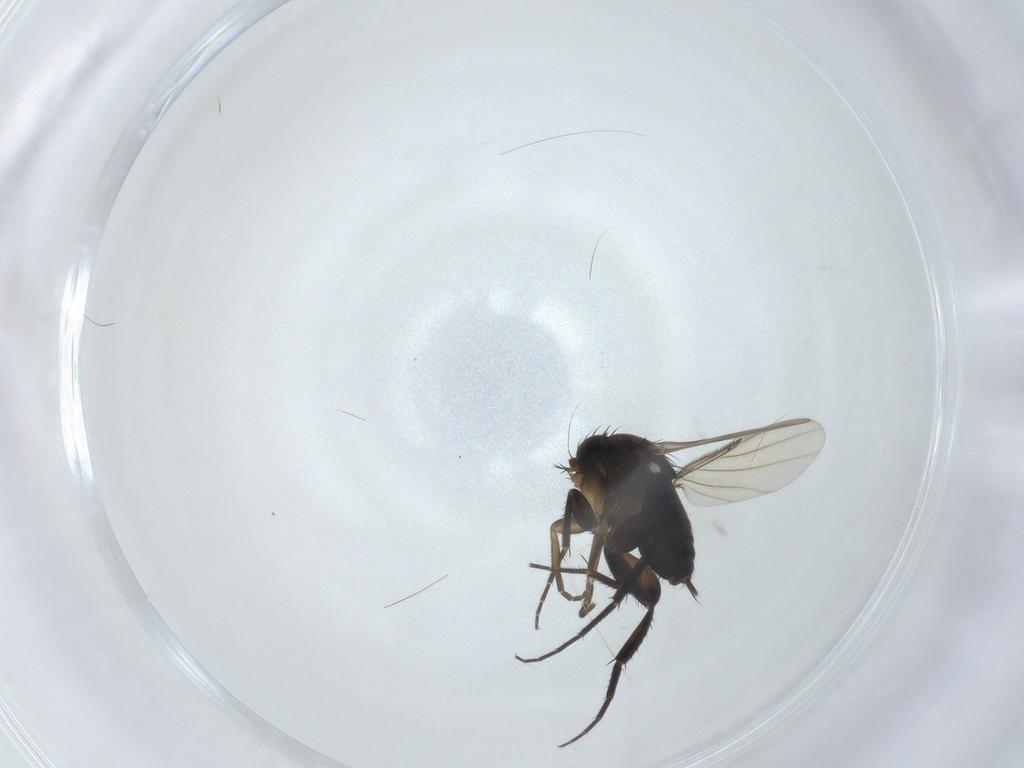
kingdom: Animalia
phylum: Arthropoda
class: Insecta
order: Diptera
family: Phoridae
